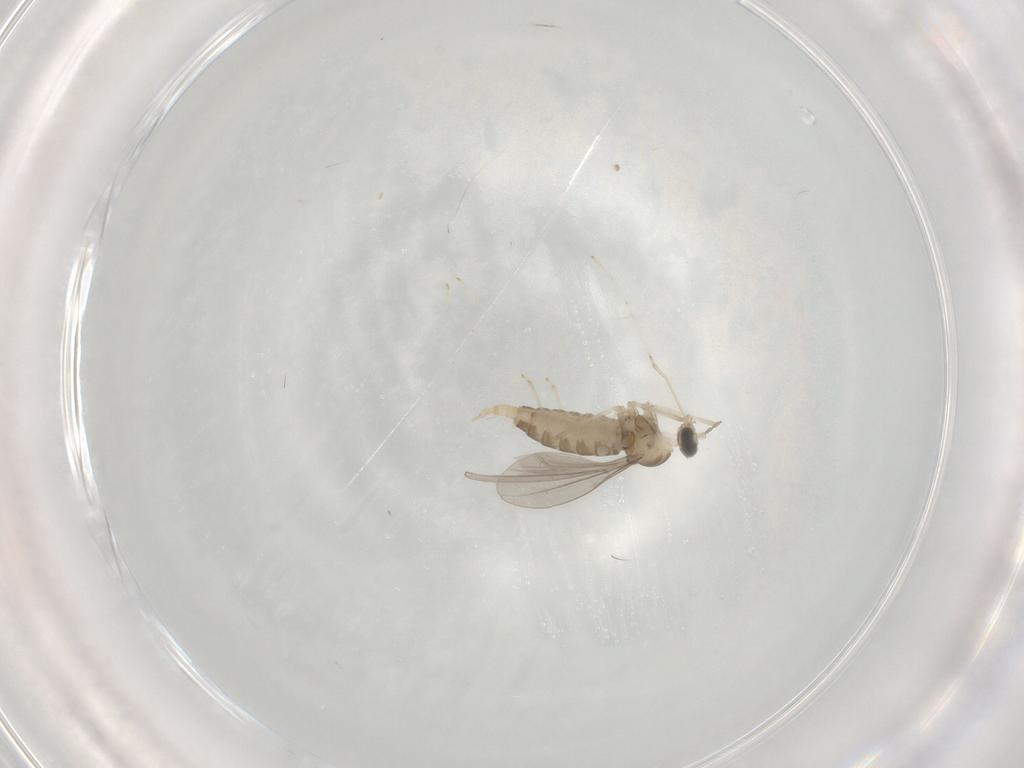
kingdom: Animalia
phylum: Arthropoda
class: Insecta
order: Diptera
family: Cecidomyiidae
